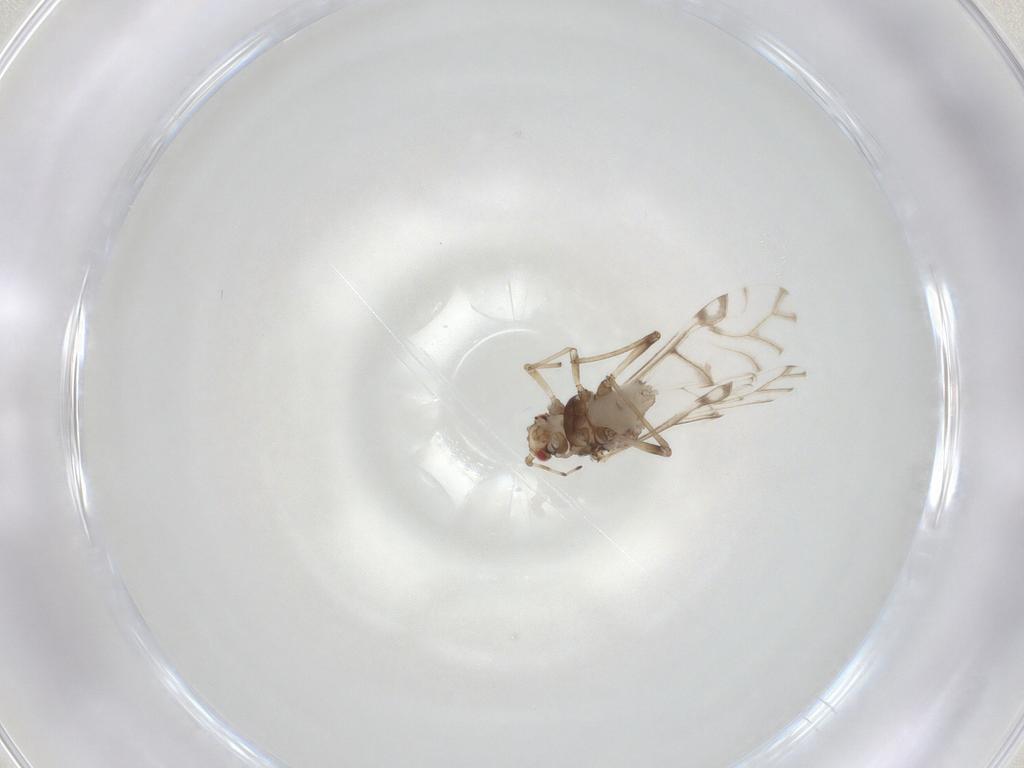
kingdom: Animalia
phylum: Arthropoda
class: Insecta
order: Hemiptera
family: Aphididae
